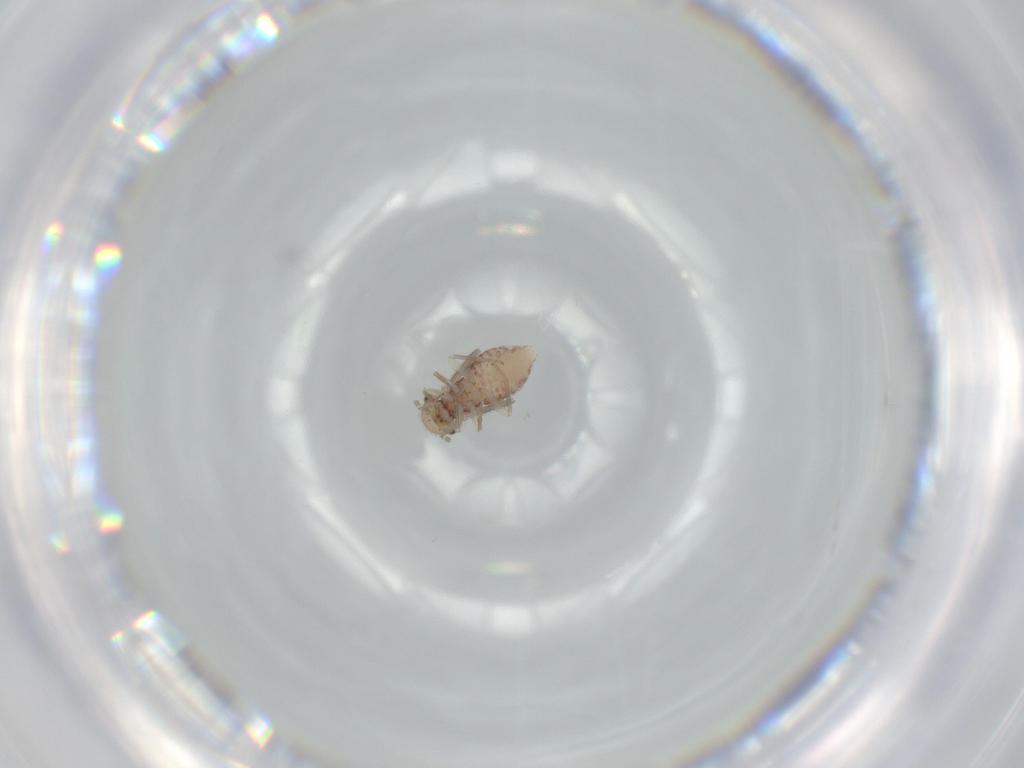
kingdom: Animalia
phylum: Arthropoda
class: Insecta
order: Psocodea
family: Ectopsocidae
